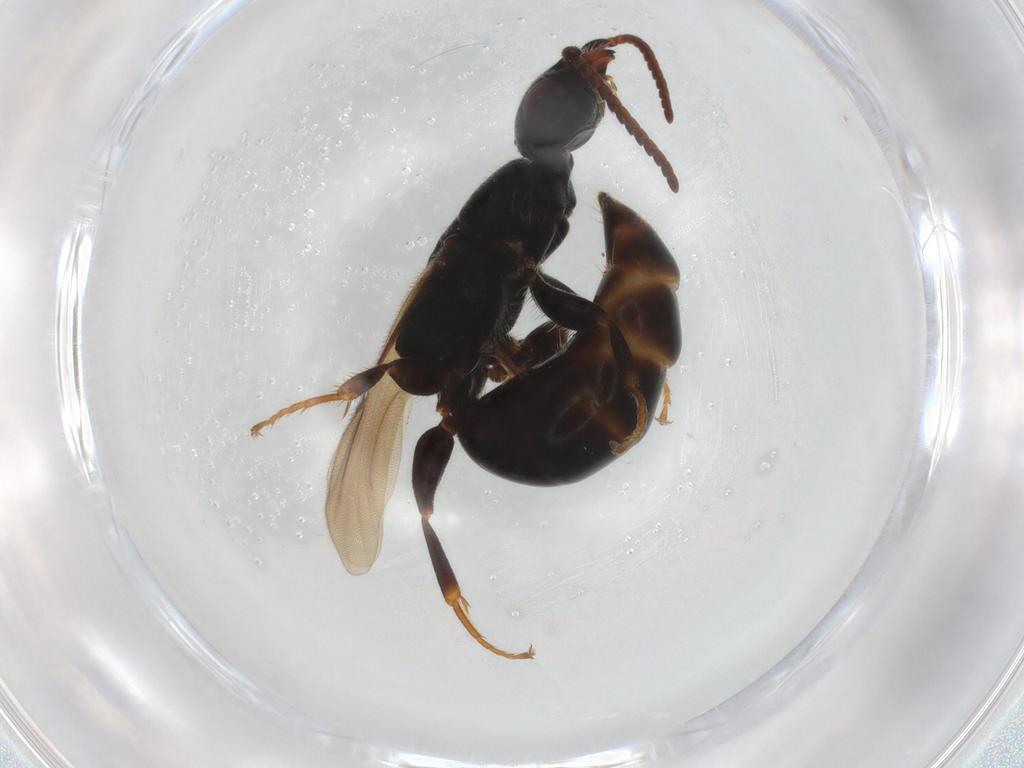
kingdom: Animalia
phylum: Arthropoda
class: Insecta
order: Hymenoptera
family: Bethylidae
